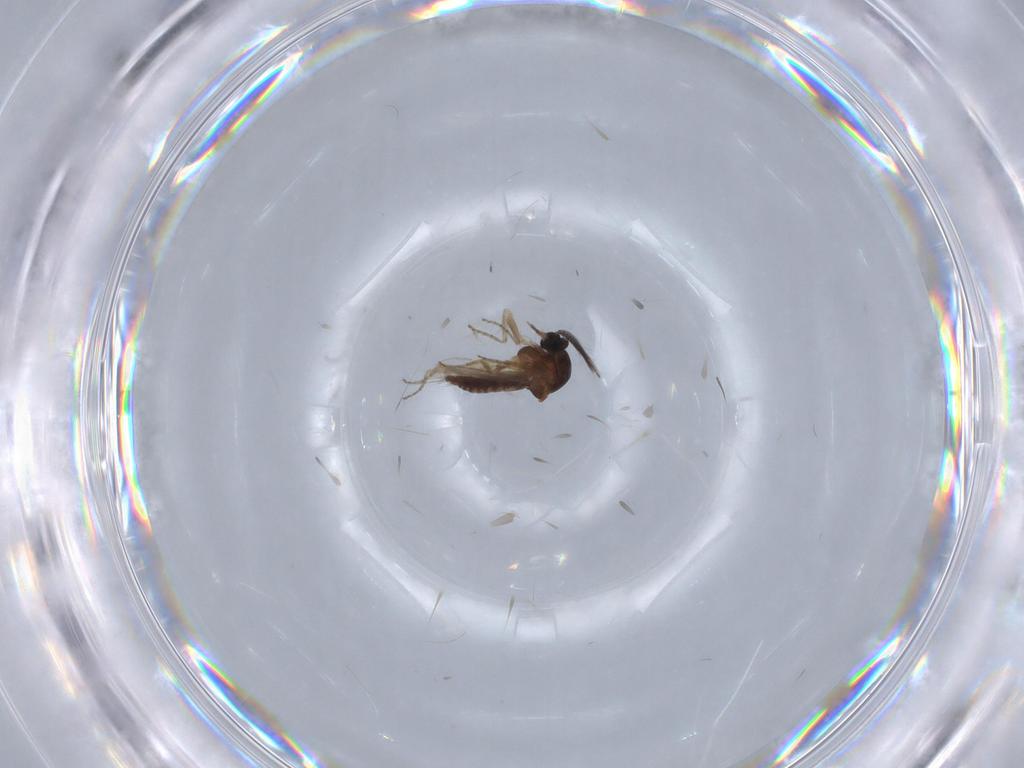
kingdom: Animalia
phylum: Arthropoda
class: Insecta
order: Diptera
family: Ceratopogonidae
